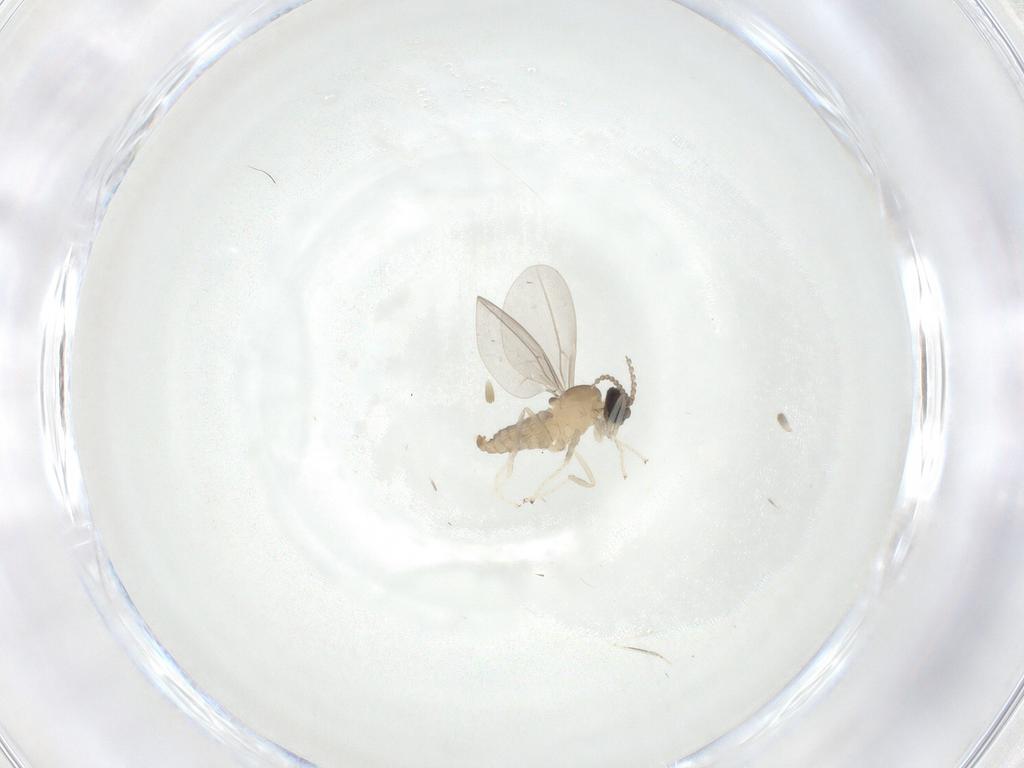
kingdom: Animalia
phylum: Arthropoda
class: Insecta
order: Diptera
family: Cecidomyiidae
